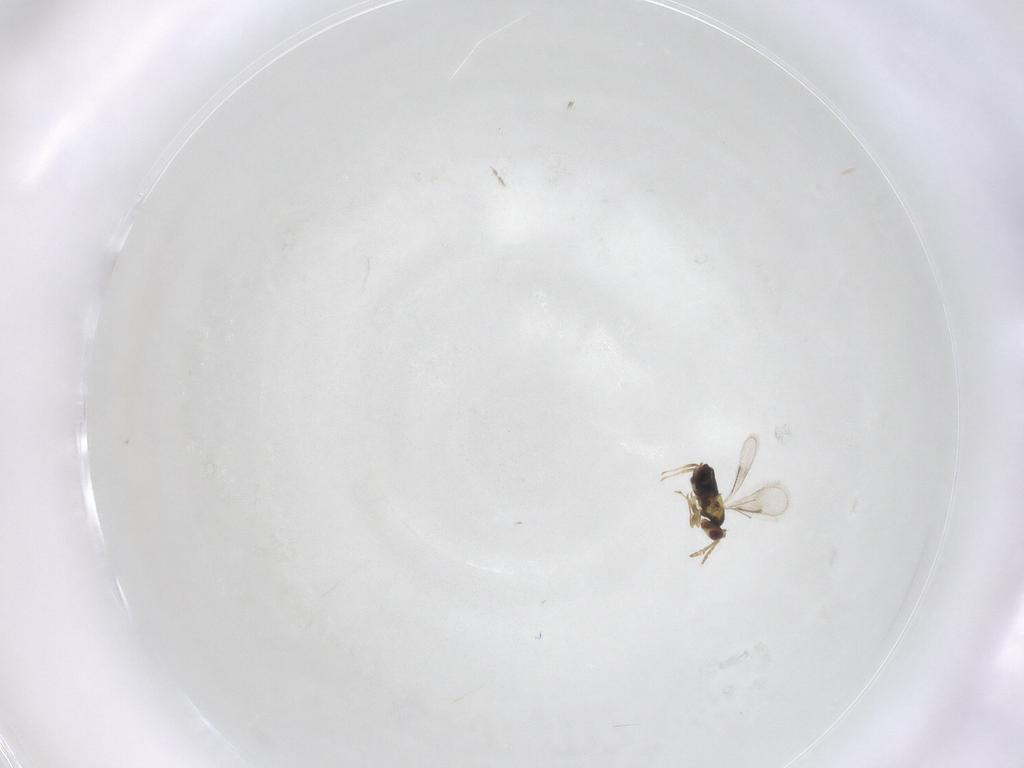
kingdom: Animalia
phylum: Arthropoda
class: Insecta
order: Hymenoptera
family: Aphelinidae
